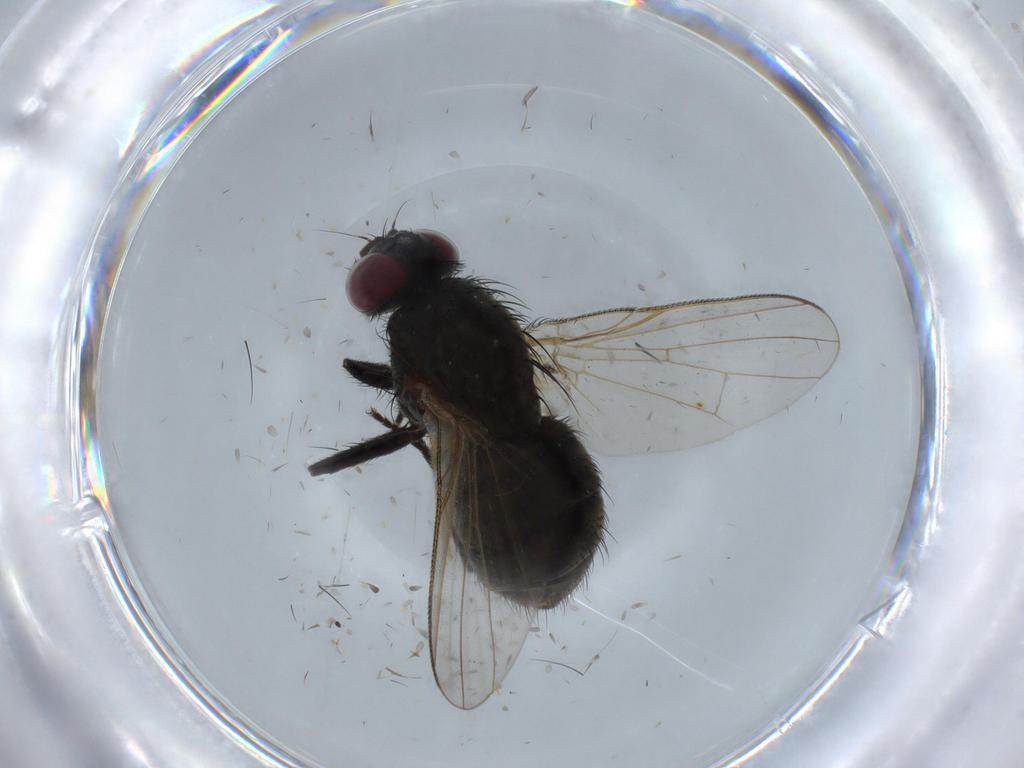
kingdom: Animalia
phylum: Arthropoda
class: Insecta
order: Diptera
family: Muscidae
